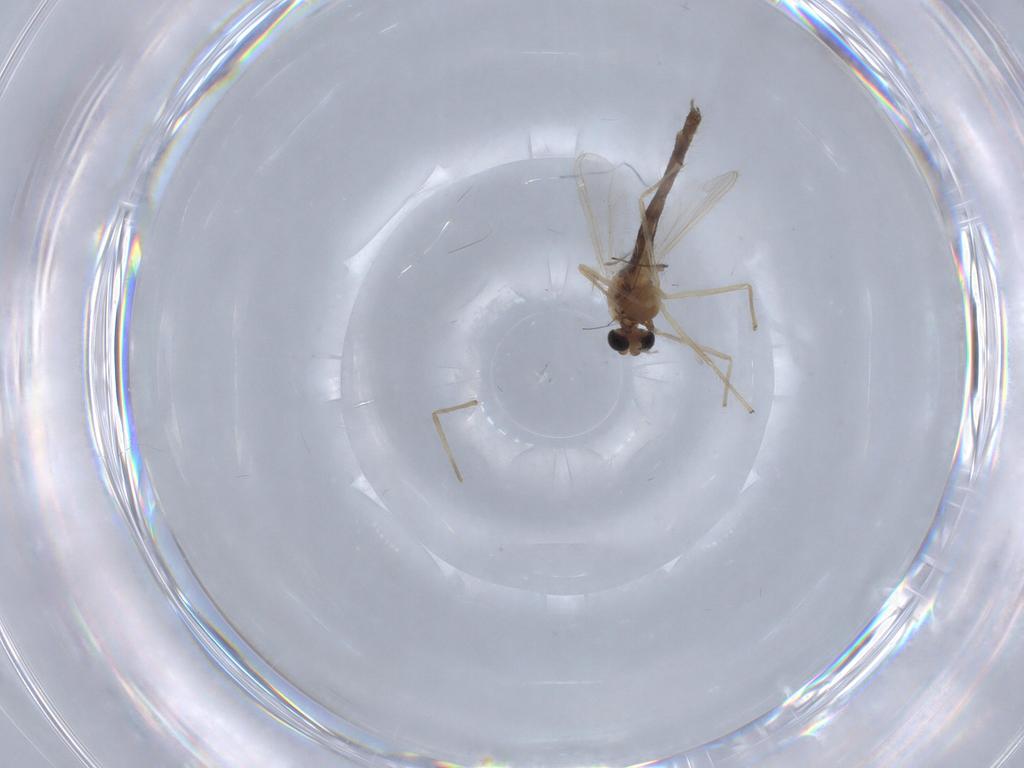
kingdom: Animalia
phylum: Arthropoda
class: Insecta
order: Diptera
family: Chironomidae
